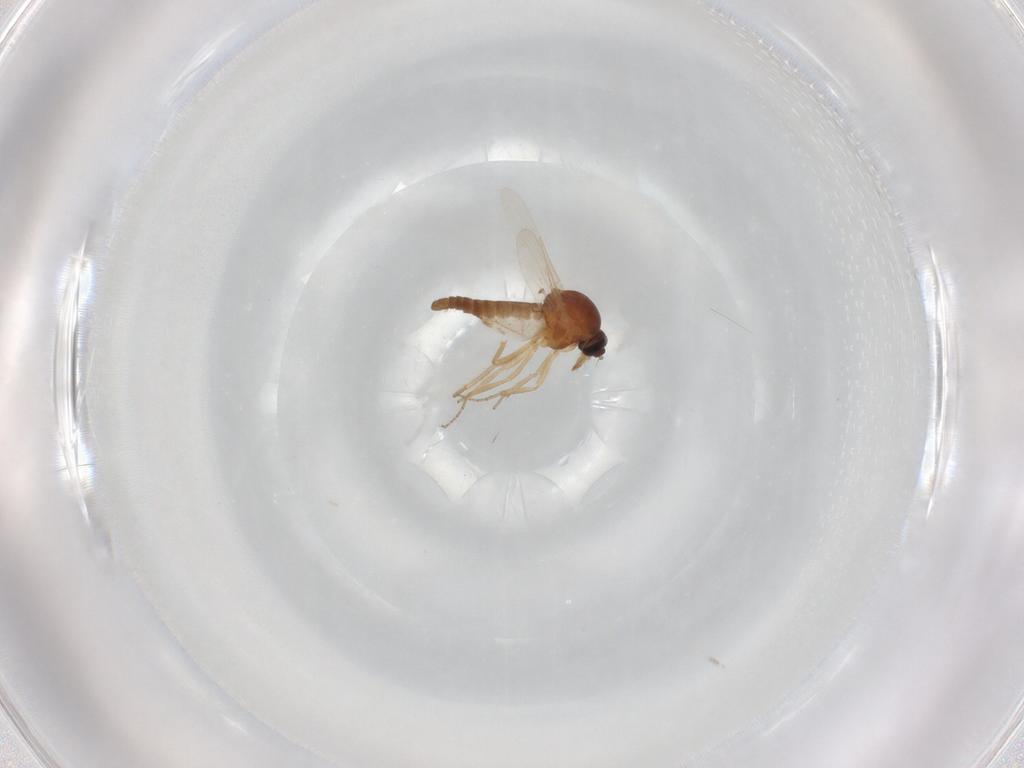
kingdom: Animalia
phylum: Arthropoda
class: Insecta
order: Diptera
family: Ceratopogonidae
